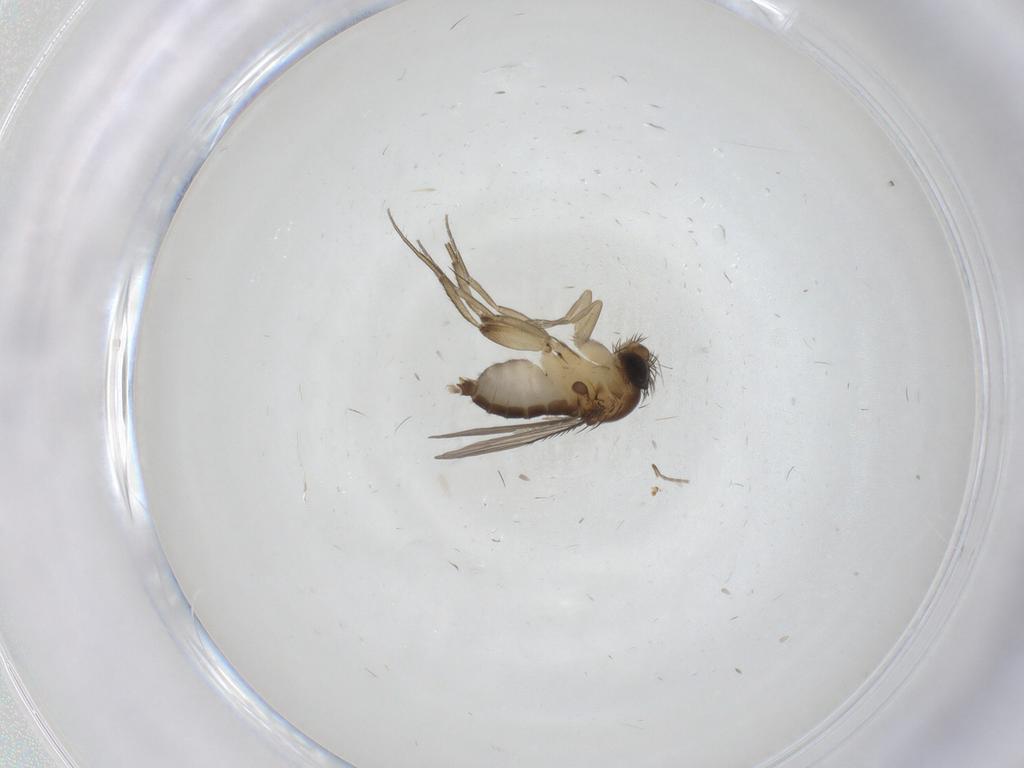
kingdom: Animalia
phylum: Arthropoda
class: Insecta
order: Diptera
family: Phoridae
